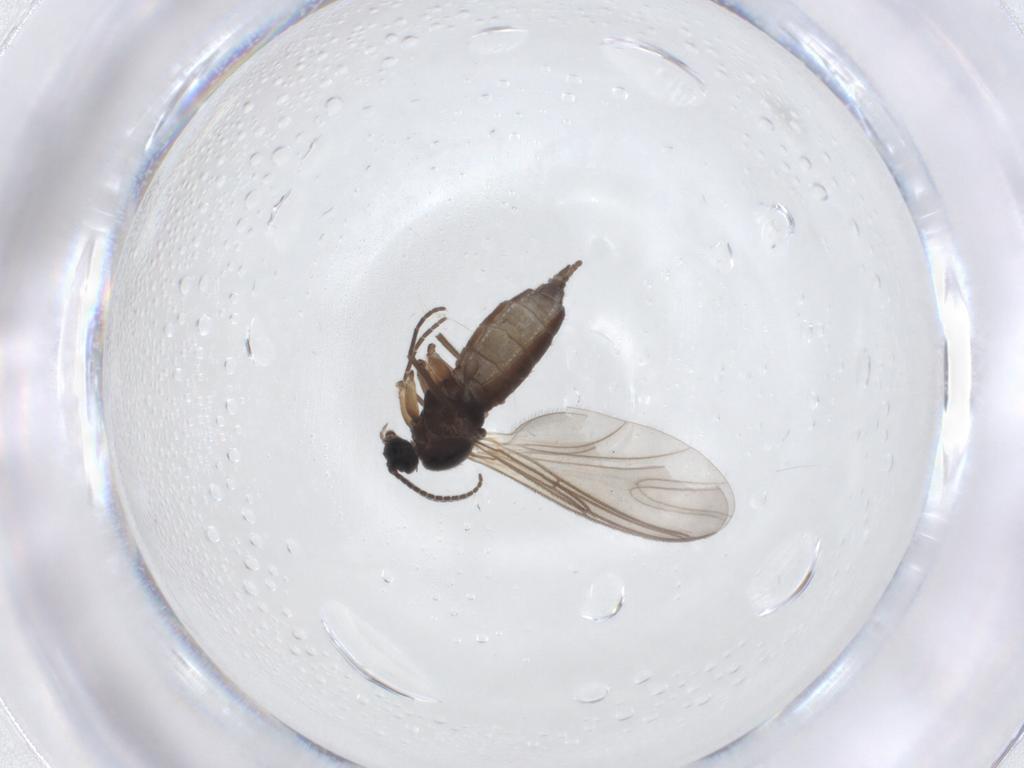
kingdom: Animalia
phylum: Arthropoda
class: Insecta
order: Diptera
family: Sciaridae
